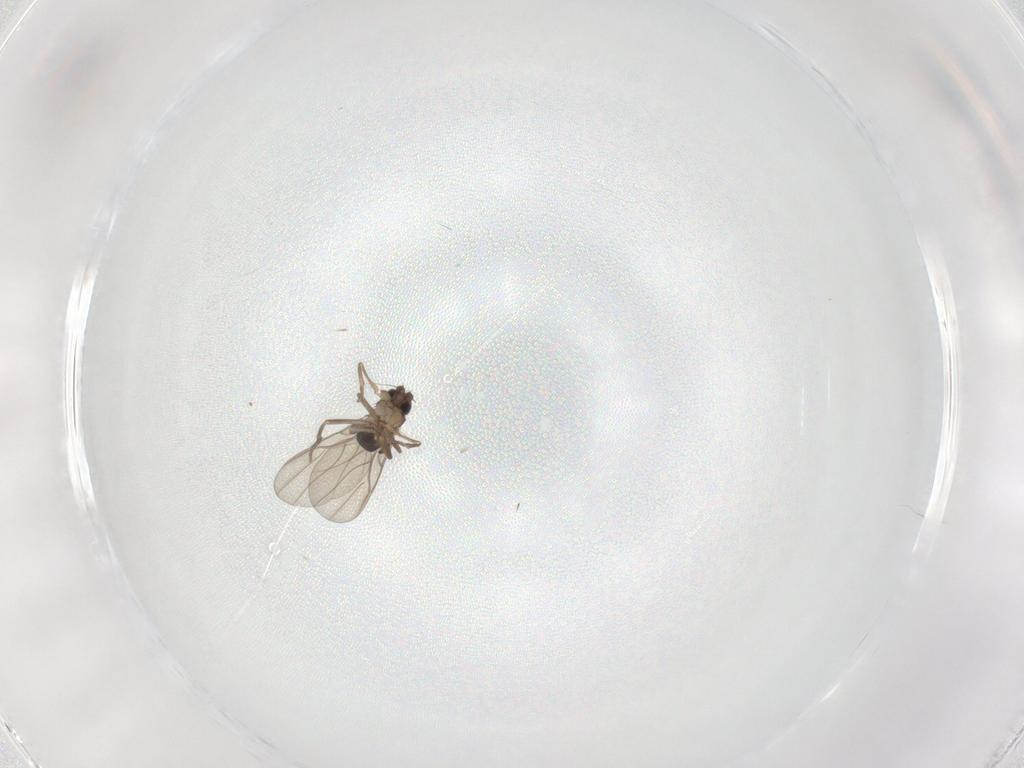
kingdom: Animalia
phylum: Arthropoda
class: Insecta
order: Diptera
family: Phoridae
